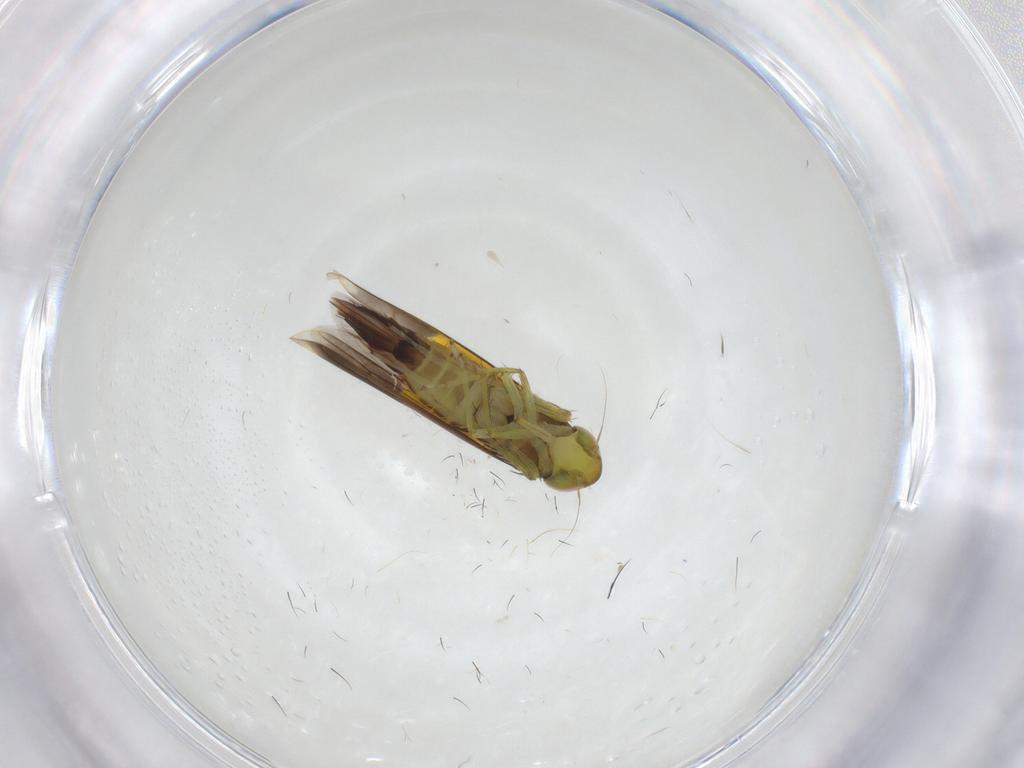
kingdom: Animalia
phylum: Arthropoda
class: Insecta
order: Hemiptera
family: Cicadellidae
